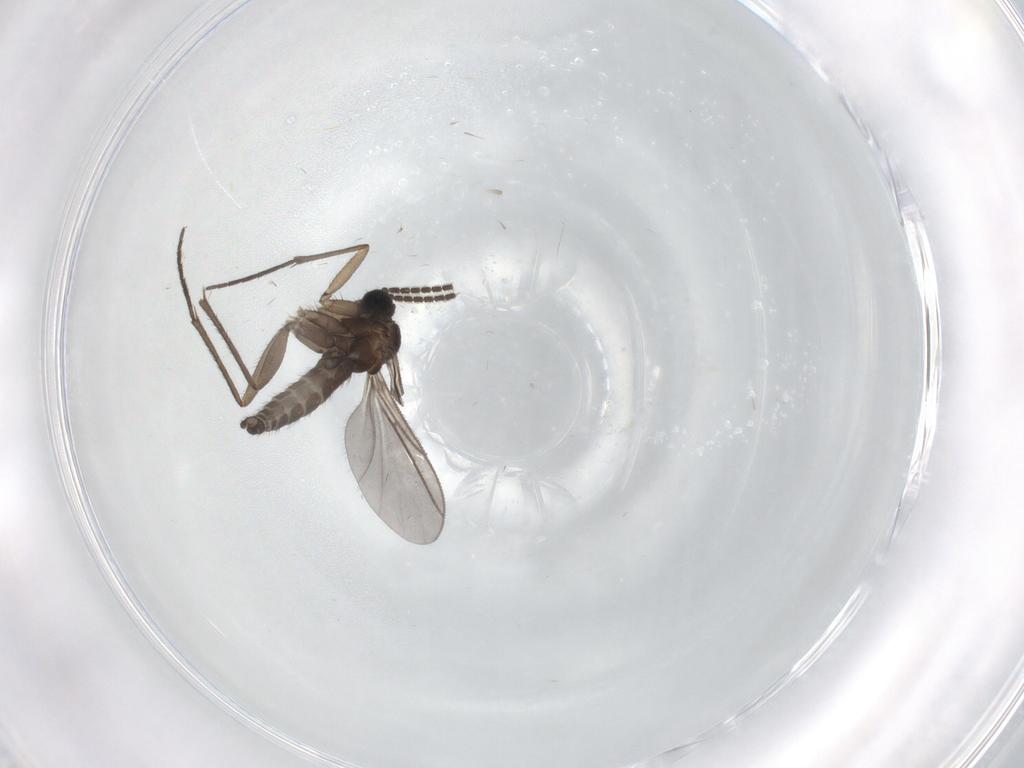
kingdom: Animalia
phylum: Arthropoda
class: Insecta
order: Diptera
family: Sciaridae
